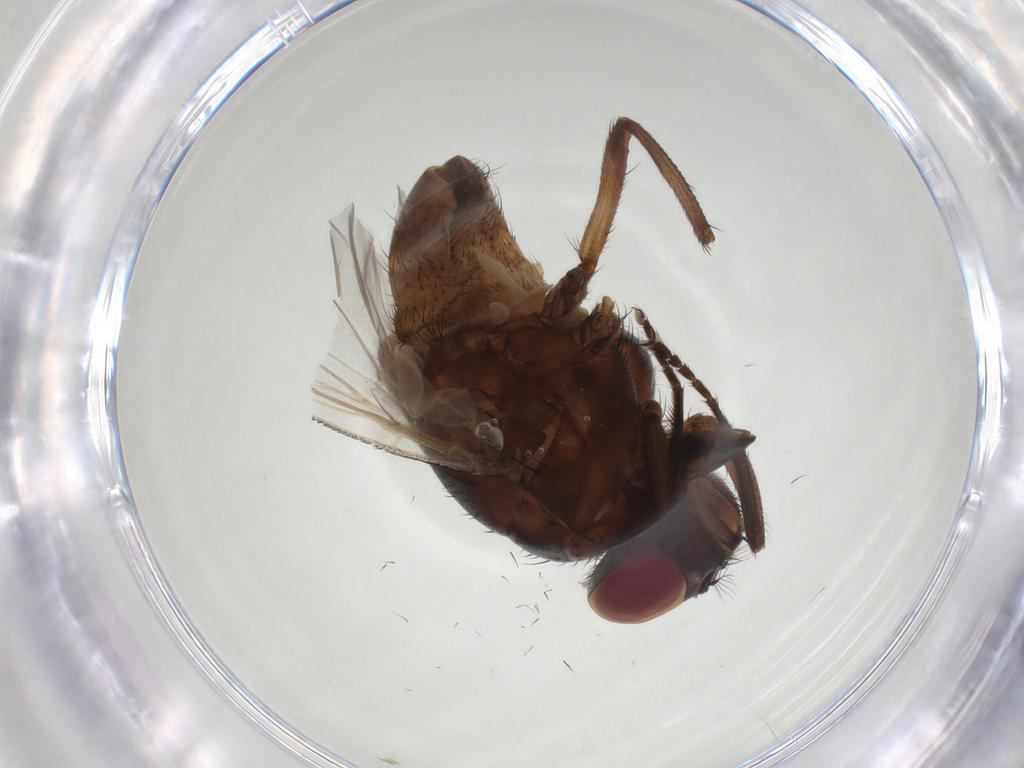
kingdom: Animalia
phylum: Arthropoda
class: Insecta
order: Diptera
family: Muscidae
